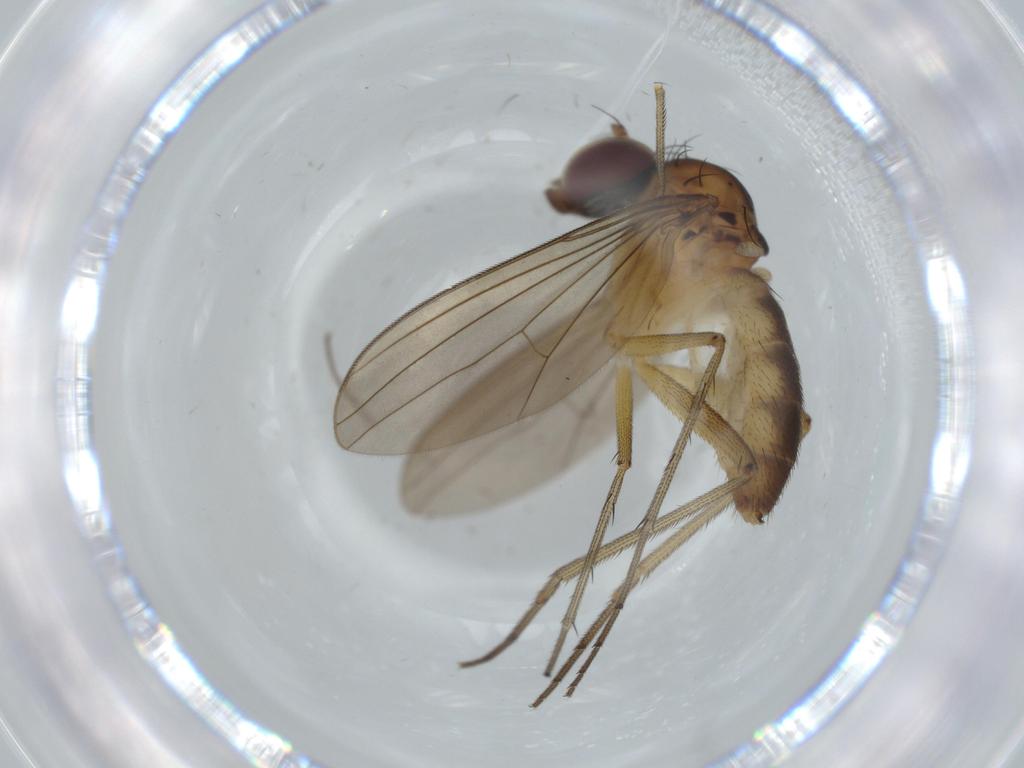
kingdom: Animalia
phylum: Arthropoda
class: Insecta
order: Diptera
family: Dolichopodidae
